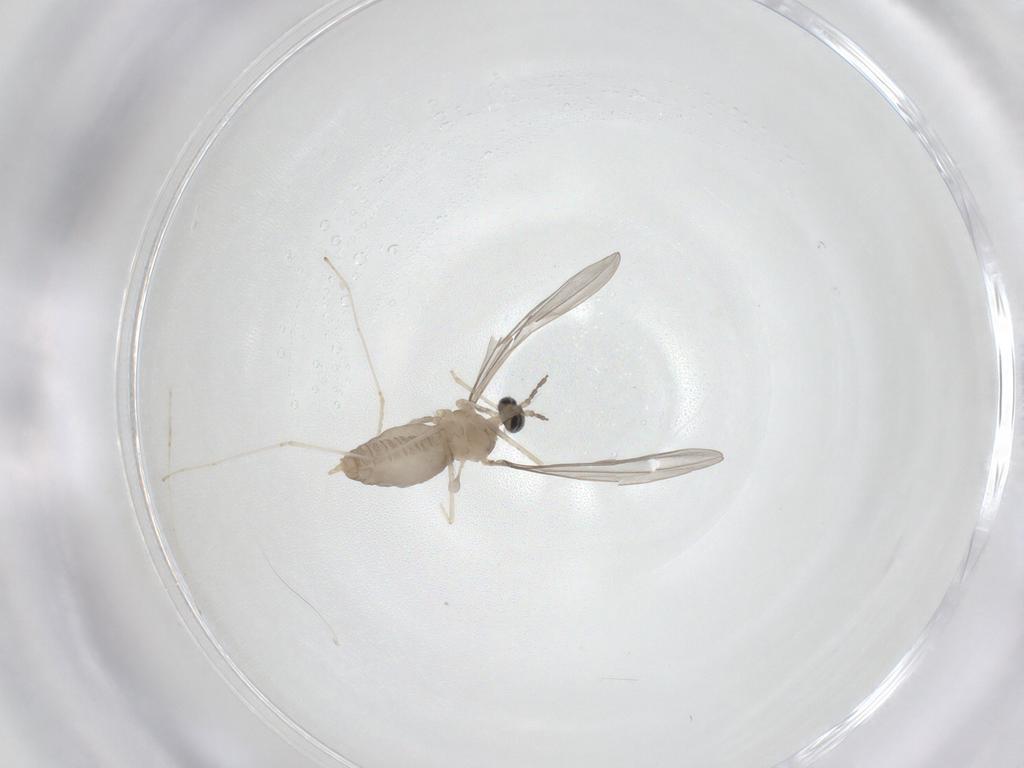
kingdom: Animalia
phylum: Arthropoda
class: Insecta
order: Diptera
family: Cecidomyiidae
